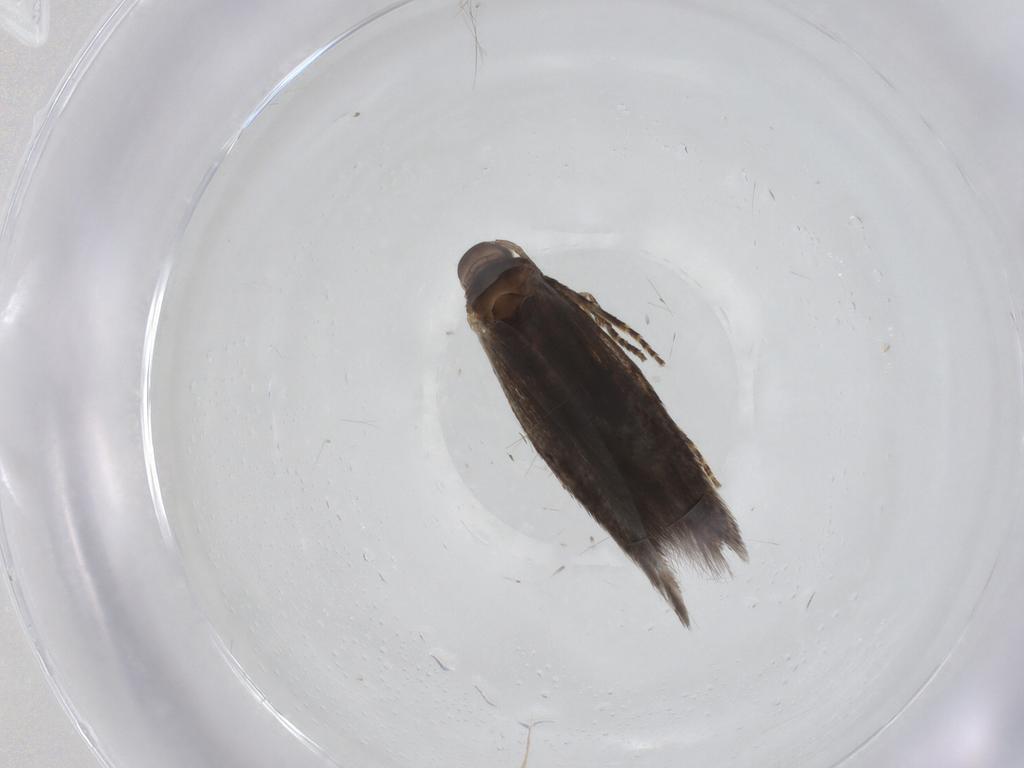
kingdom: Animalia
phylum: Arthropoda
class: Insecta
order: Lepidoptera
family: Elachistidae
